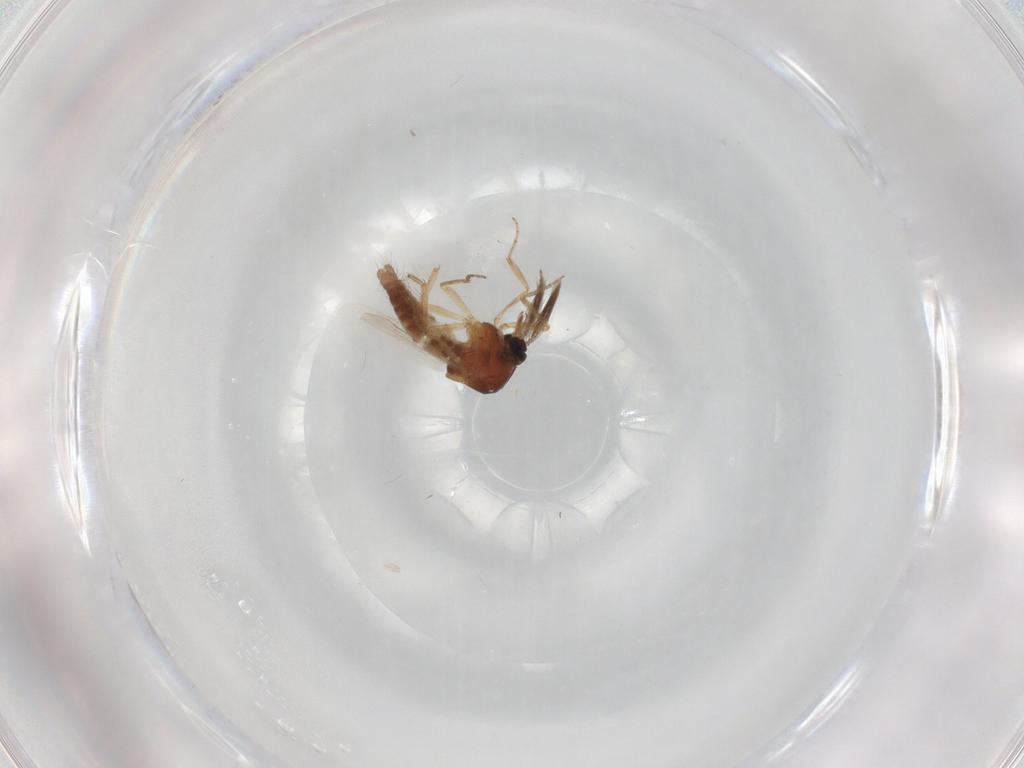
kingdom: Animalia
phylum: Arthropoda
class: Insecta
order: Diptera
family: Ceratopogonidae
